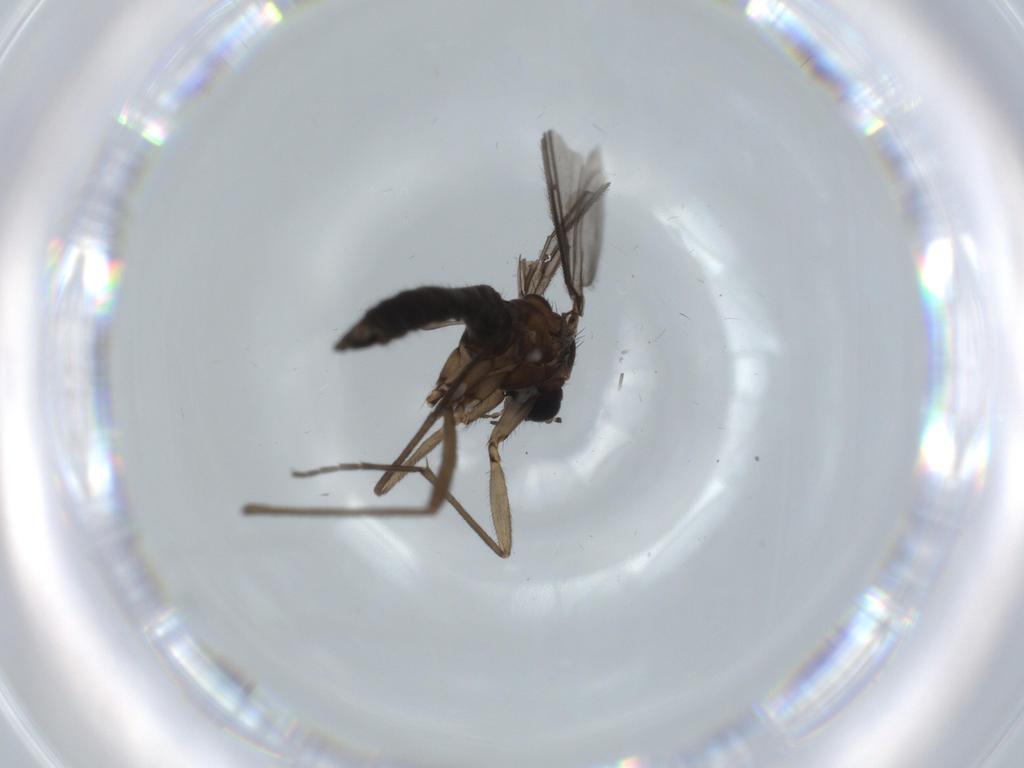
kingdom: Animalia
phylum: Arthropoda
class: Insecta
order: Diptera
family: Sciaridae
